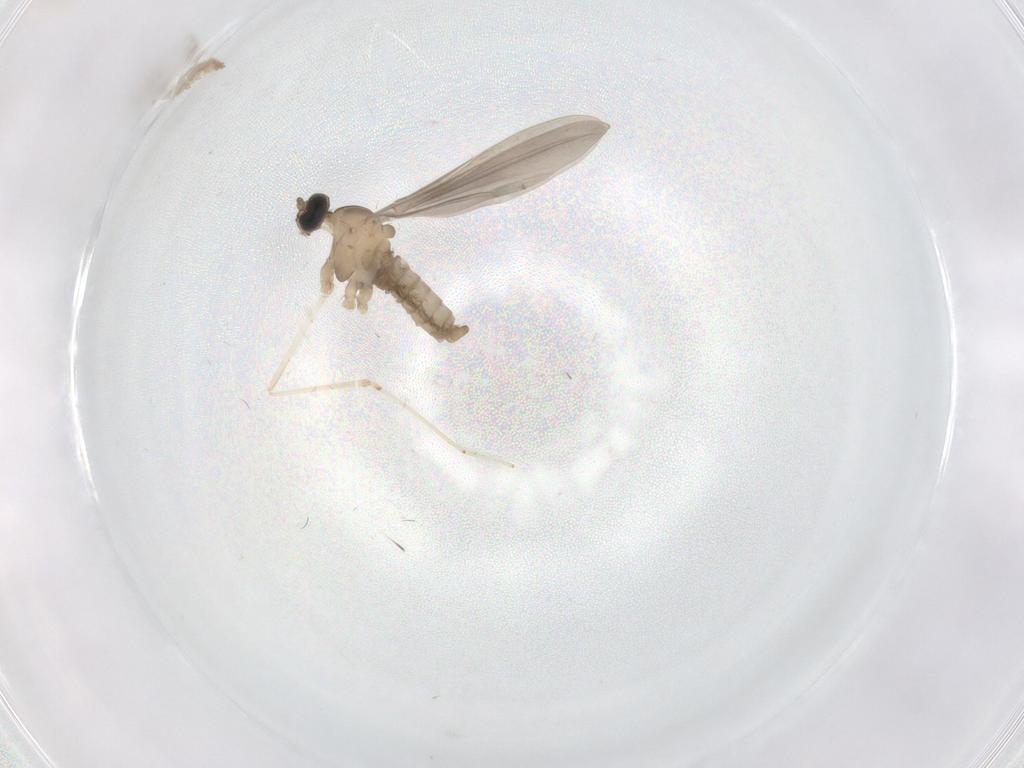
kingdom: Animalia
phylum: Arthropoda
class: Insecta
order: Diptera
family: Cecidomyiidae
